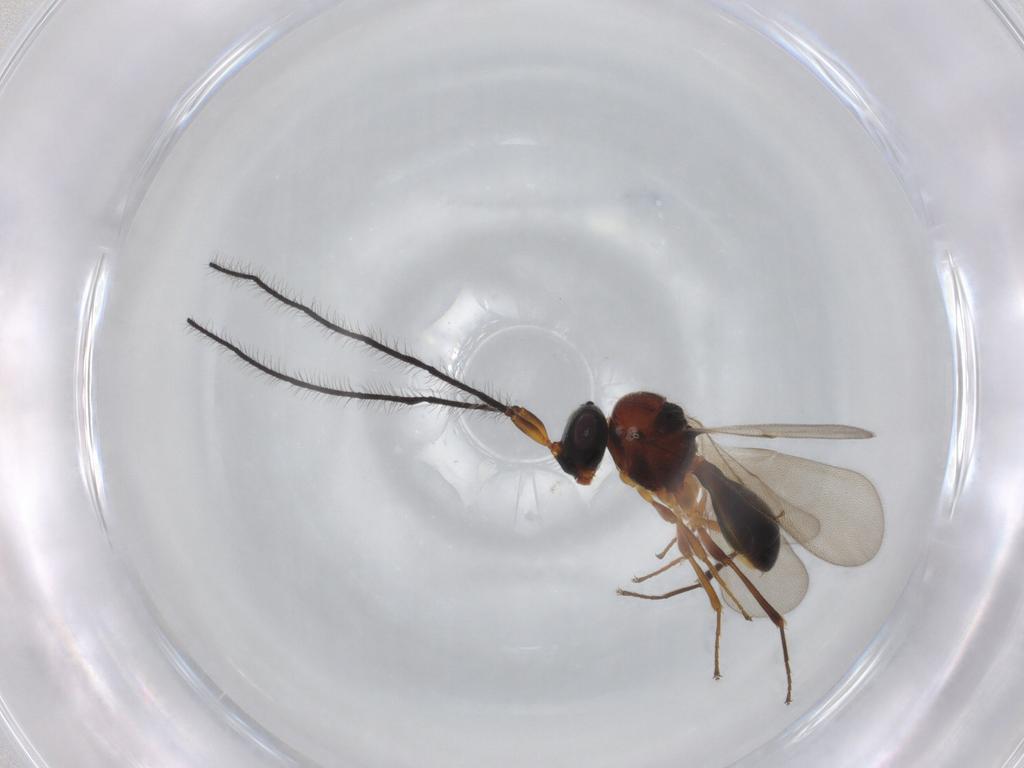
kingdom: Animalia
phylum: Arthropoda
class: Insecta
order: Hymenoptera
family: Scelionidae
